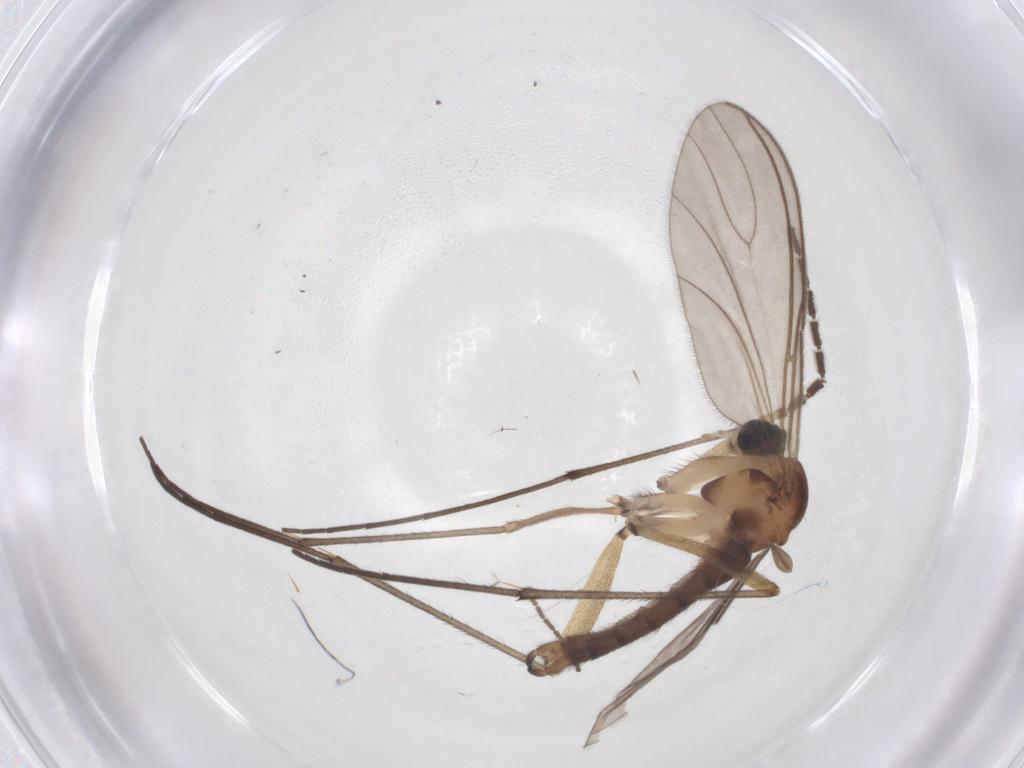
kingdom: Animalia
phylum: Arthropoda
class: Insecta
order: Diptera
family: Sciaridae
